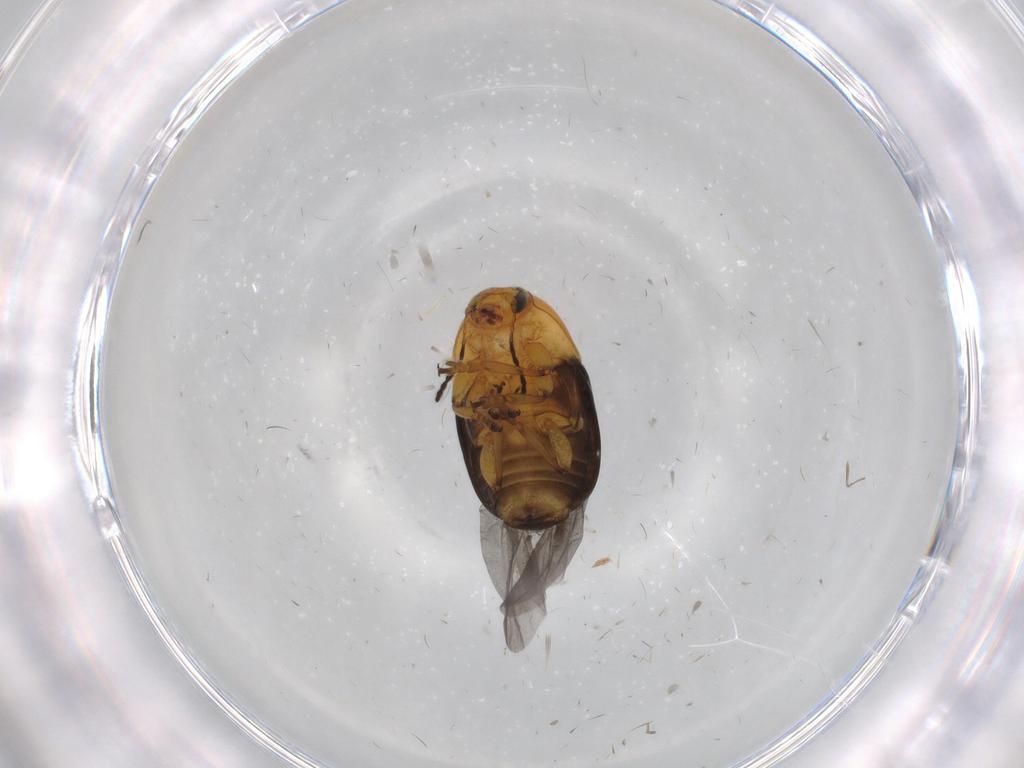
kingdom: Animalia
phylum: Arthropoda
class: Insecta
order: Coleoptera
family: Chrysomelidae
